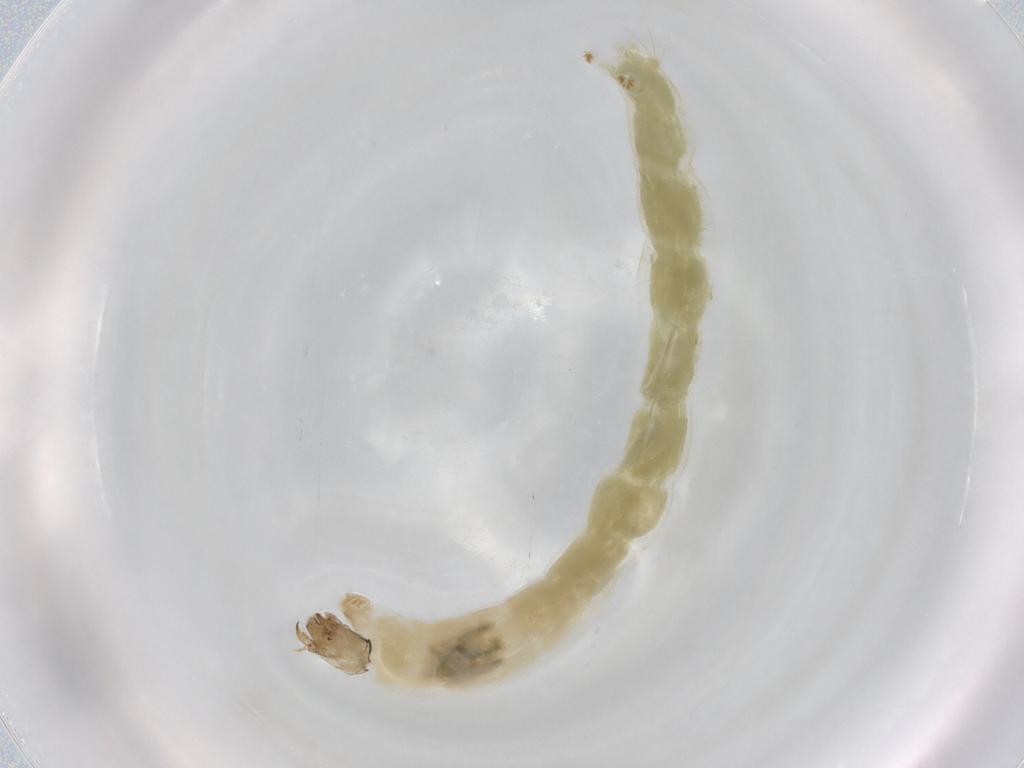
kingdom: Animalia
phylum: Arthropoda
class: Insecta
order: Diptera
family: Chironomidae
